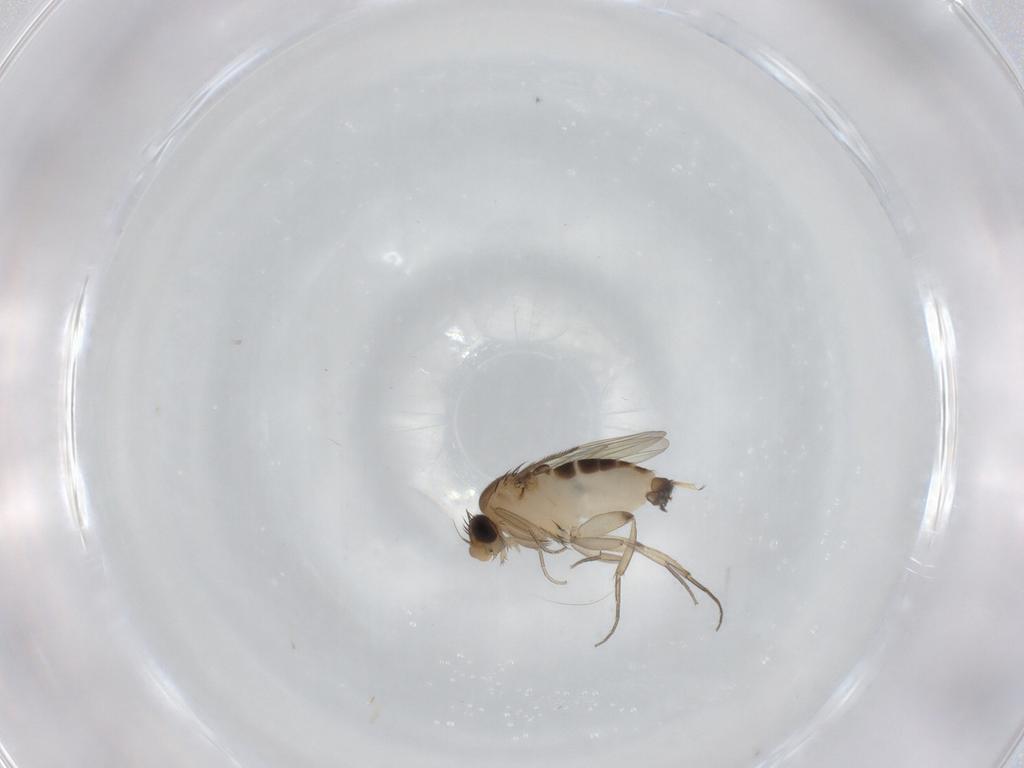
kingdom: Animalia
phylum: Arthropoda
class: Insecta
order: Diptera
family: Phoridae
